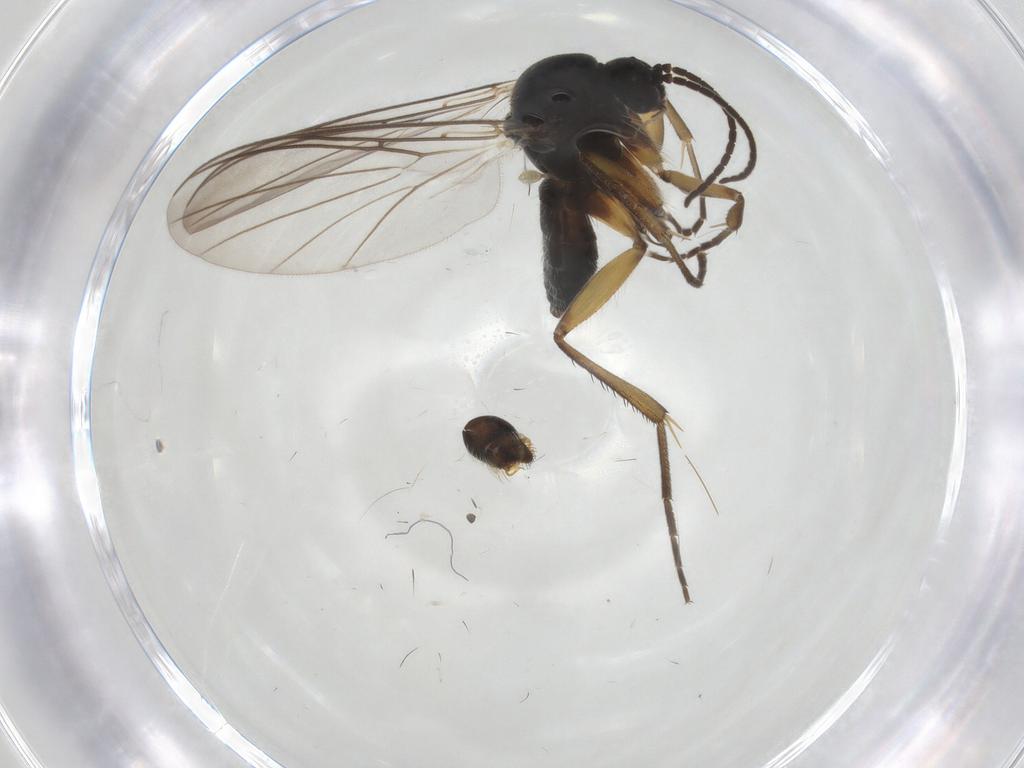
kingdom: Animalia
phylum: Arthropoda
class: Insecta
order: Diptera
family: Mycetophilidae
